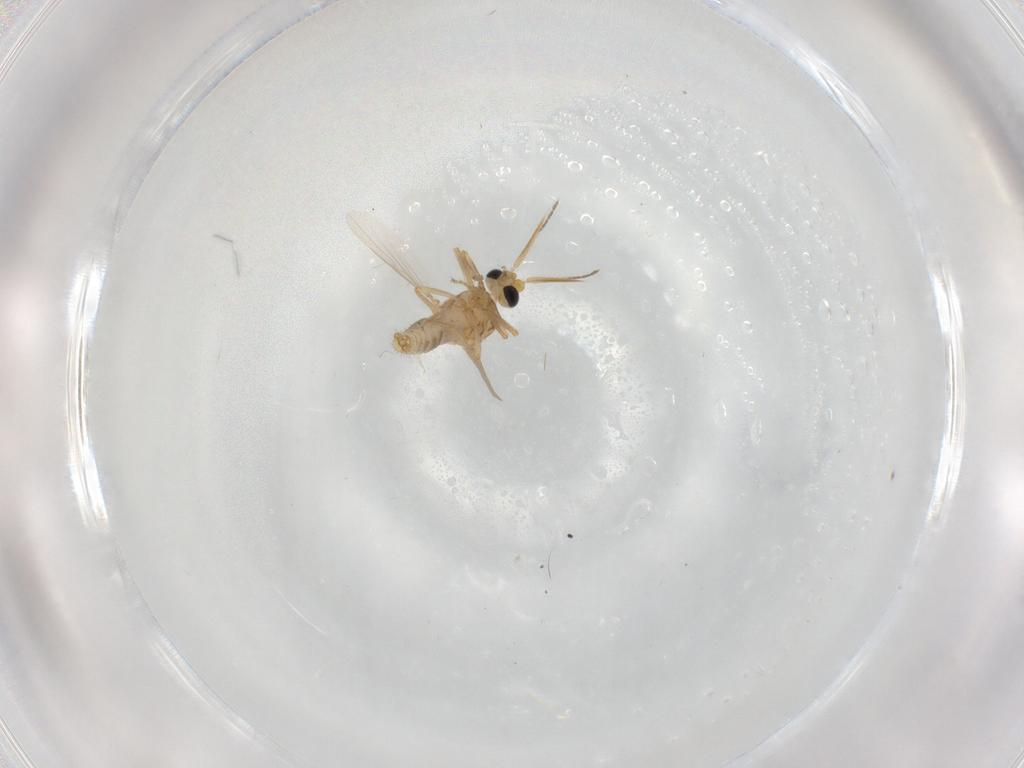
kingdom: Animalia
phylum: Arthropoda
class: Insecta
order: Diptera
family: Ceratopogonidae
